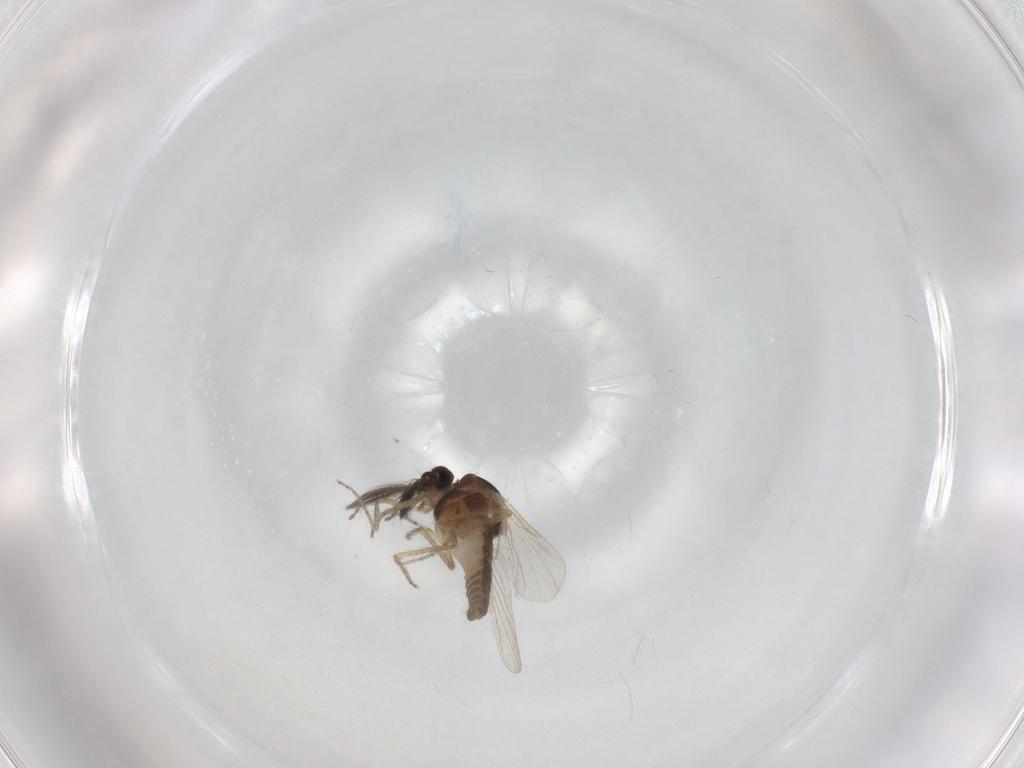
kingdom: Animalia
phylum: Arthropoda
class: Insecta
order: Diptera
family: Ceratopogonidae
